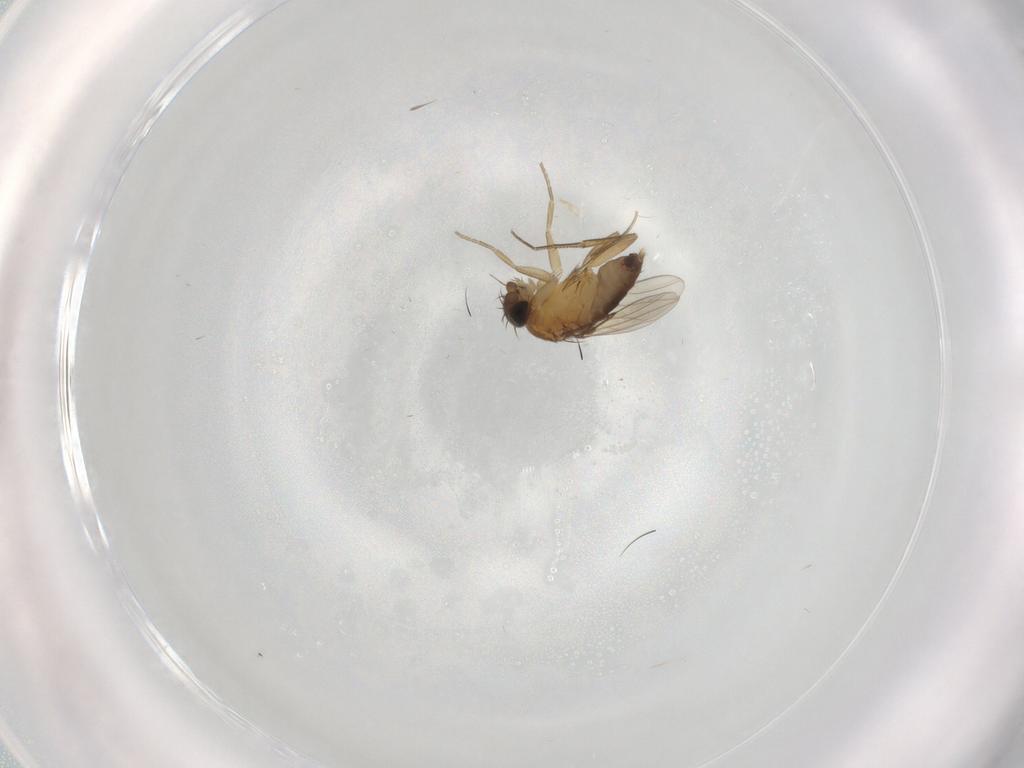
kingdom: Animalia
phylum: Arthropoda
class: Insecta
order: Diptera
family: Phoridae
